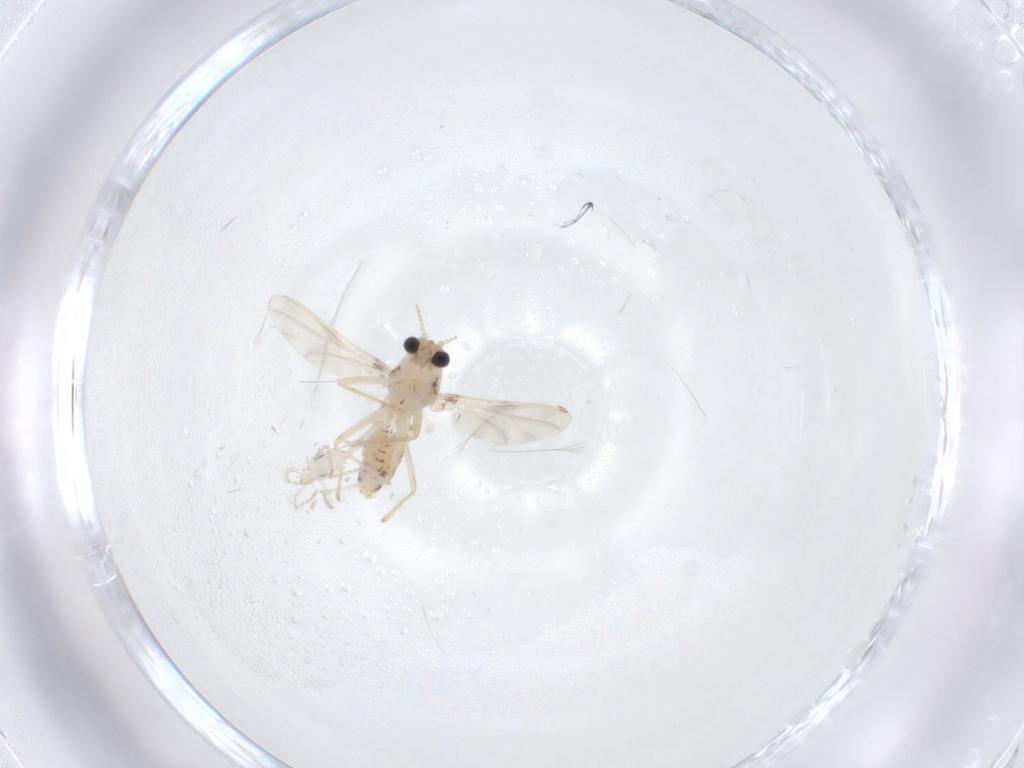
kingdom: Animalia
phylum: Arthropoda
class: Insecta
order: Diptera
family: Chironomidae
